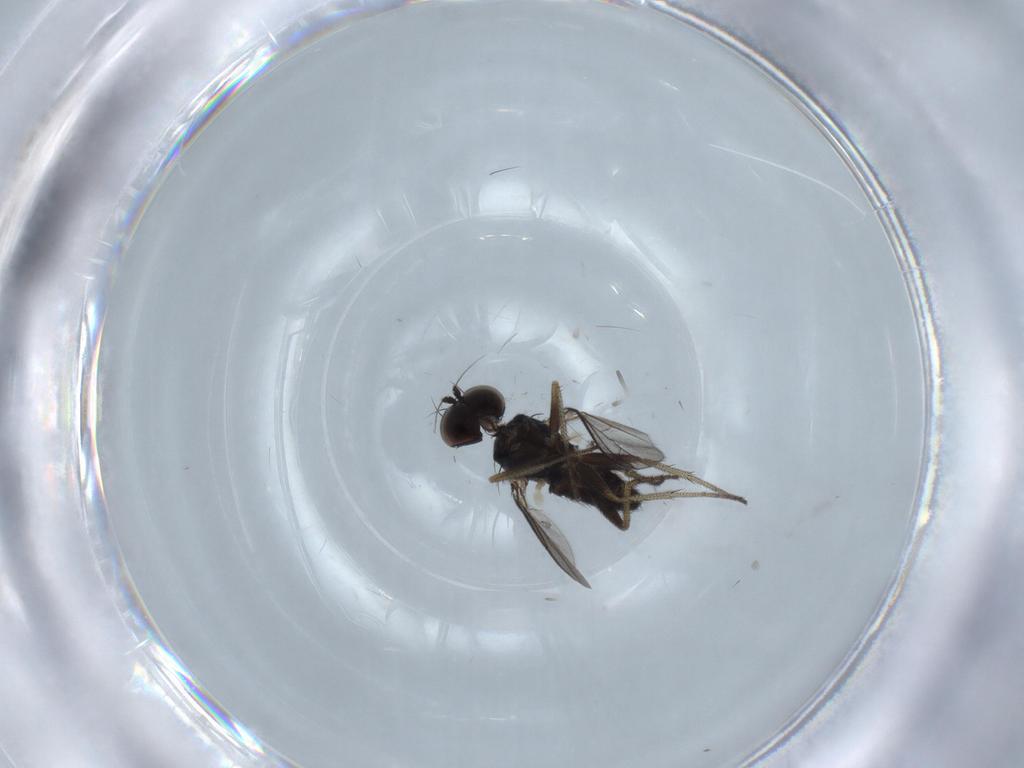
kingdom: Animalia
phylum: Arthropoda
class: Insecta
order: Diptera
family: Dolichopodidae
